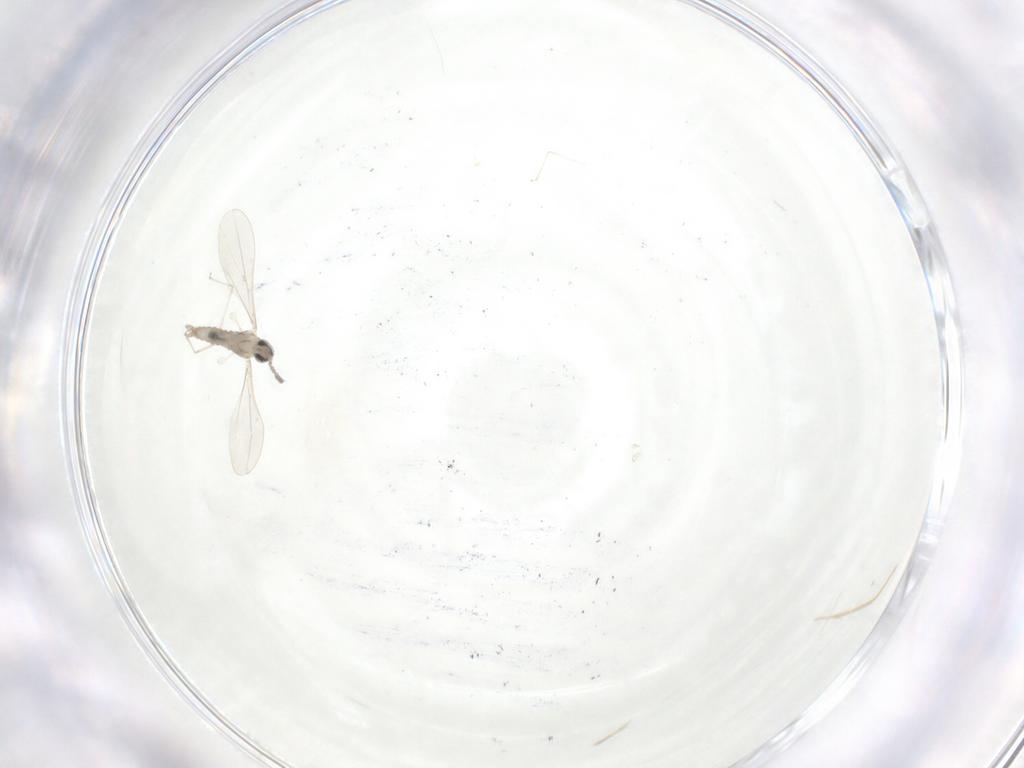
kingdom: Animalia
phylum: Arthropoda
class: Insecta
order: Diptera
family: Cecidomyiidae
